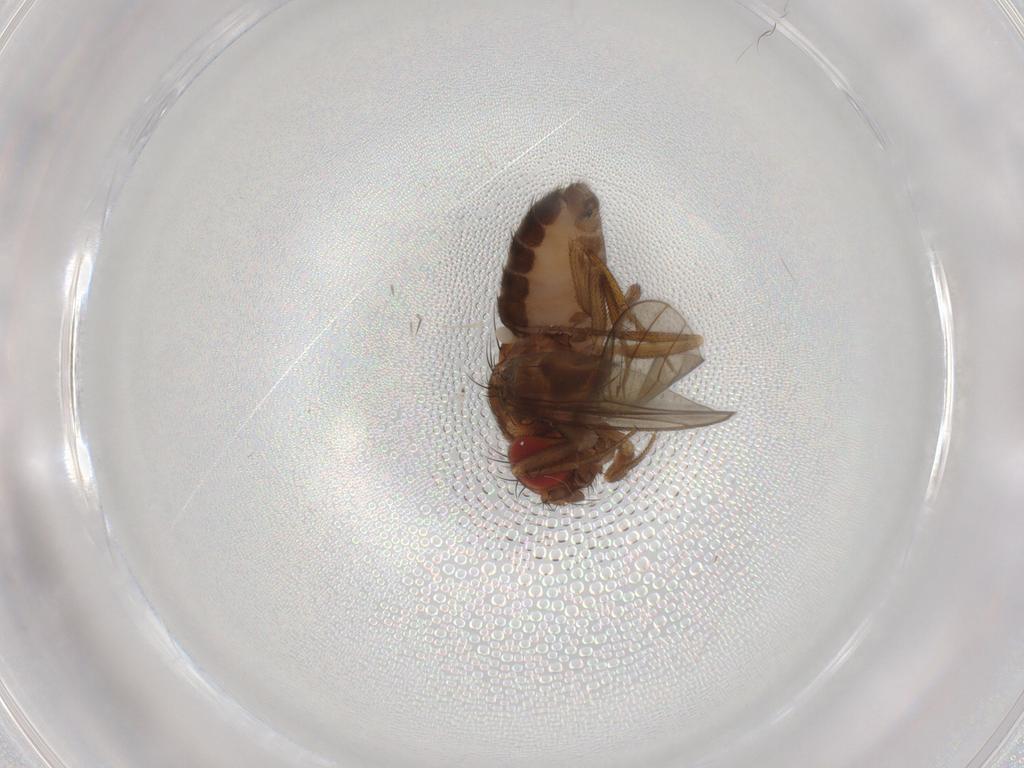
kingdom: Animalia
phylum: Arthropoda
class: Insecta
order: Diptera
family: Drosophilidae
